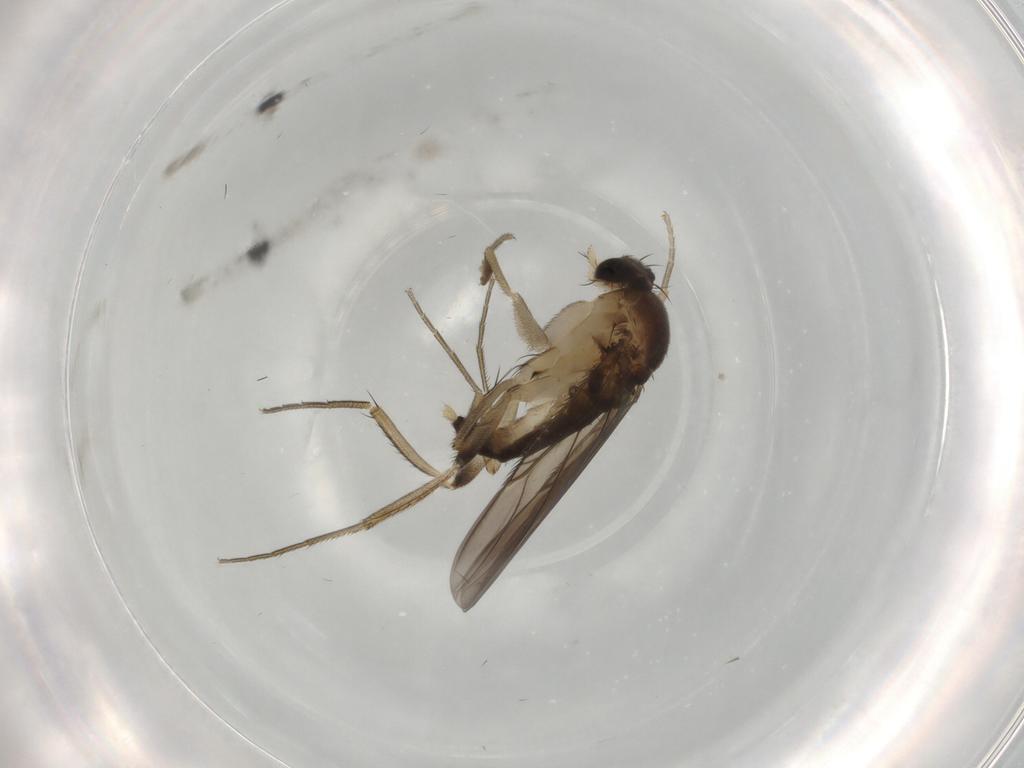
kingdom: Animalia
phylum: Arthropoda
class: Insecta
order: Diptera
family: Phoridae
